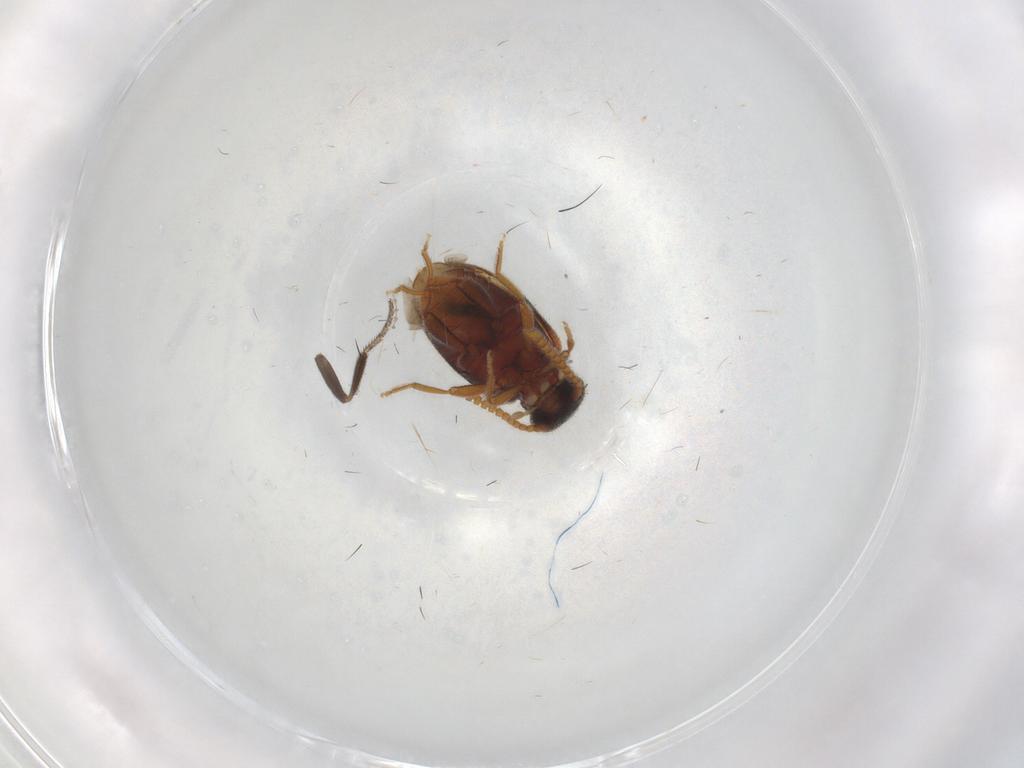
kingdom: Animalia
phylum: Arthropoda
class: Insecta
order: Coleoptera
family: Aderidae
